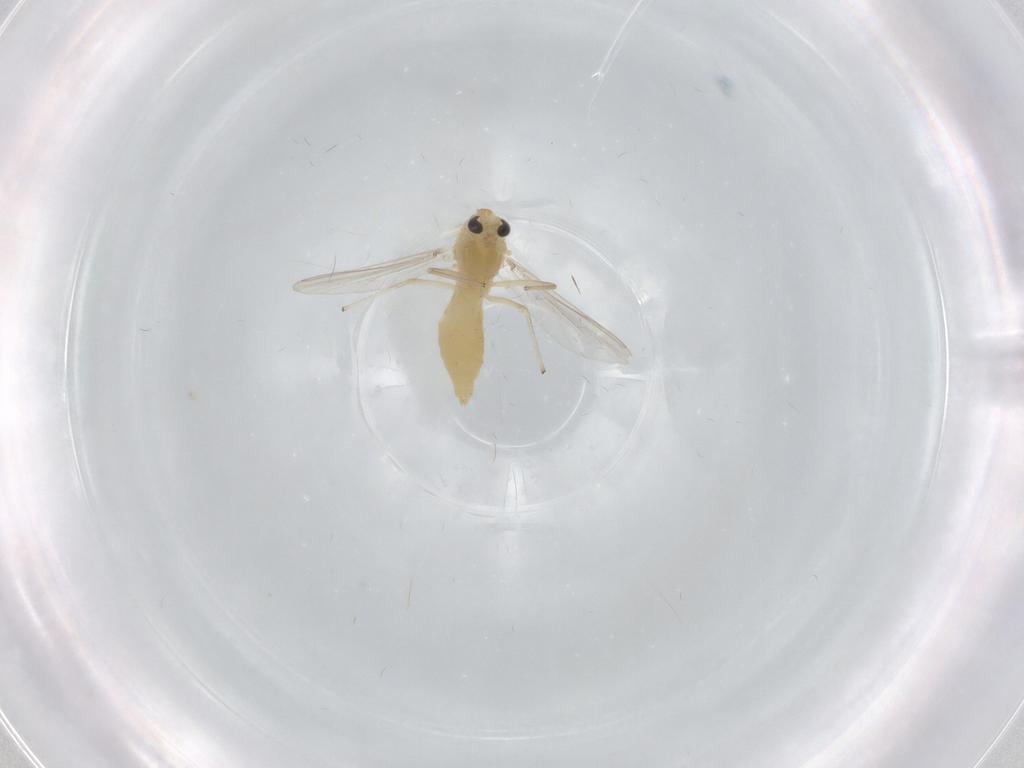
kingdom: Animalia
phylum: Arthropoda
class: Insecta
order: Diptera
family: Chironomidae
